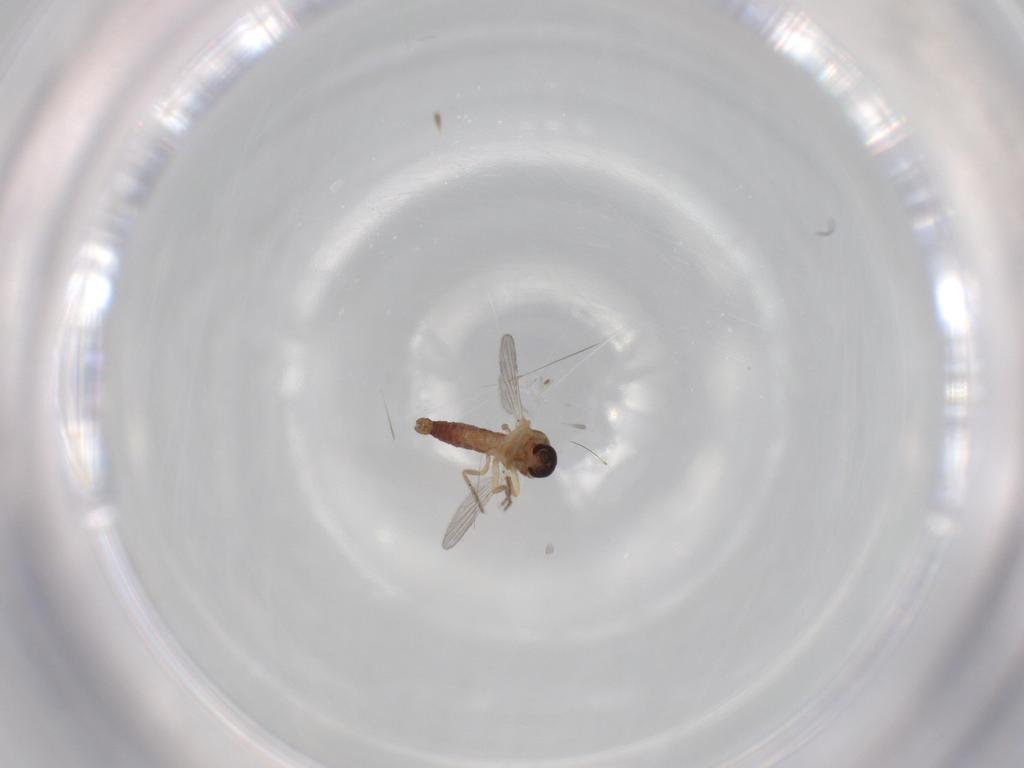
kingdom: Animalia
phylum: Arthropoda
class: Insecta
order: Diptera
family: Ceratopogonidae
